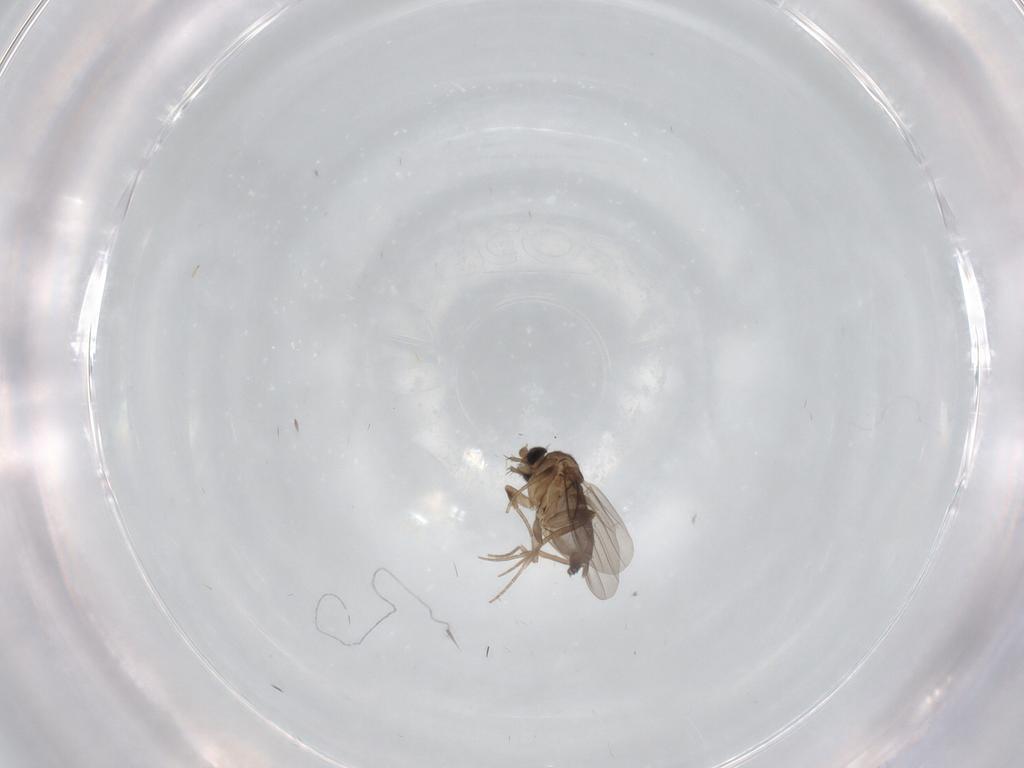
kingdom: Animalia
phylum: Arthropoda
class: Insecta
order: Diptera
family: Phoridae
